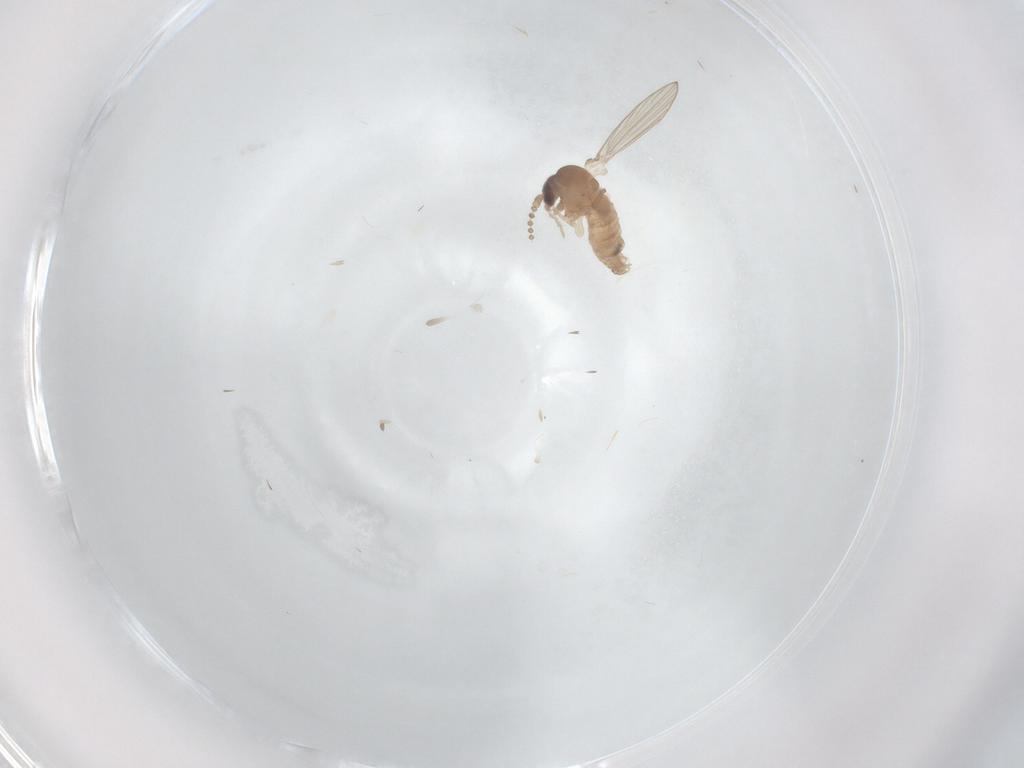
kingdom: Animalia
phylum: Arthropoda
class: Insecta
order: Diptera
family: Psychodidae
